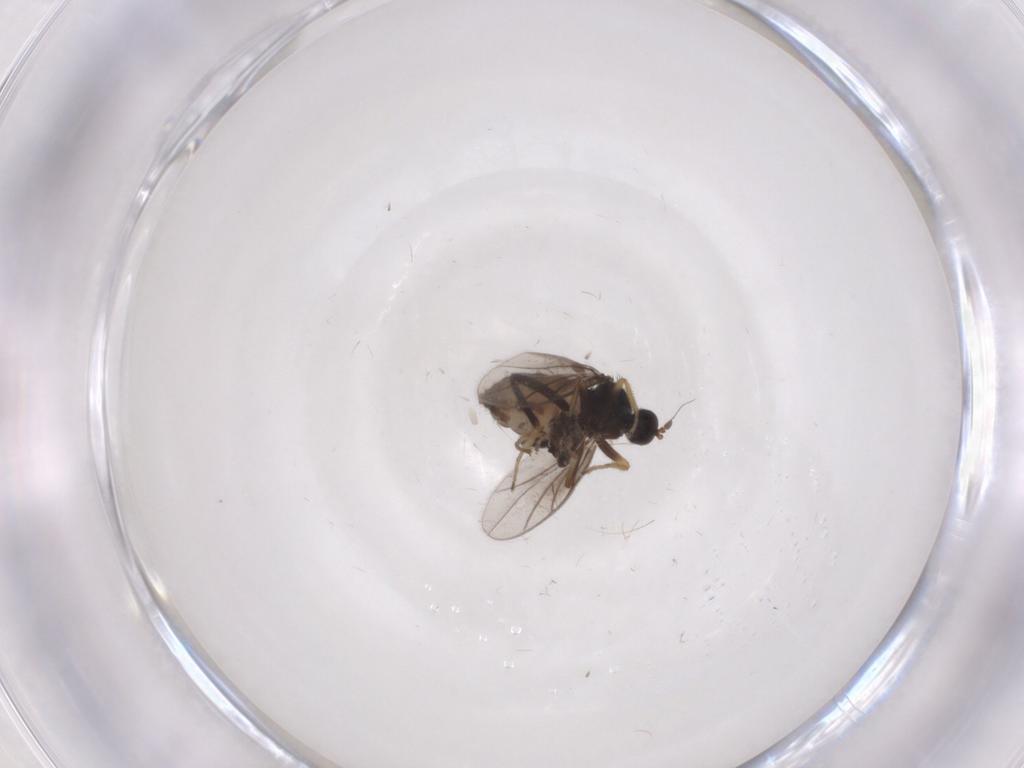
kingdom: Animalia
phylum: Arthropoda
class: Insecta
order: Diptera
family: Hybotidae
